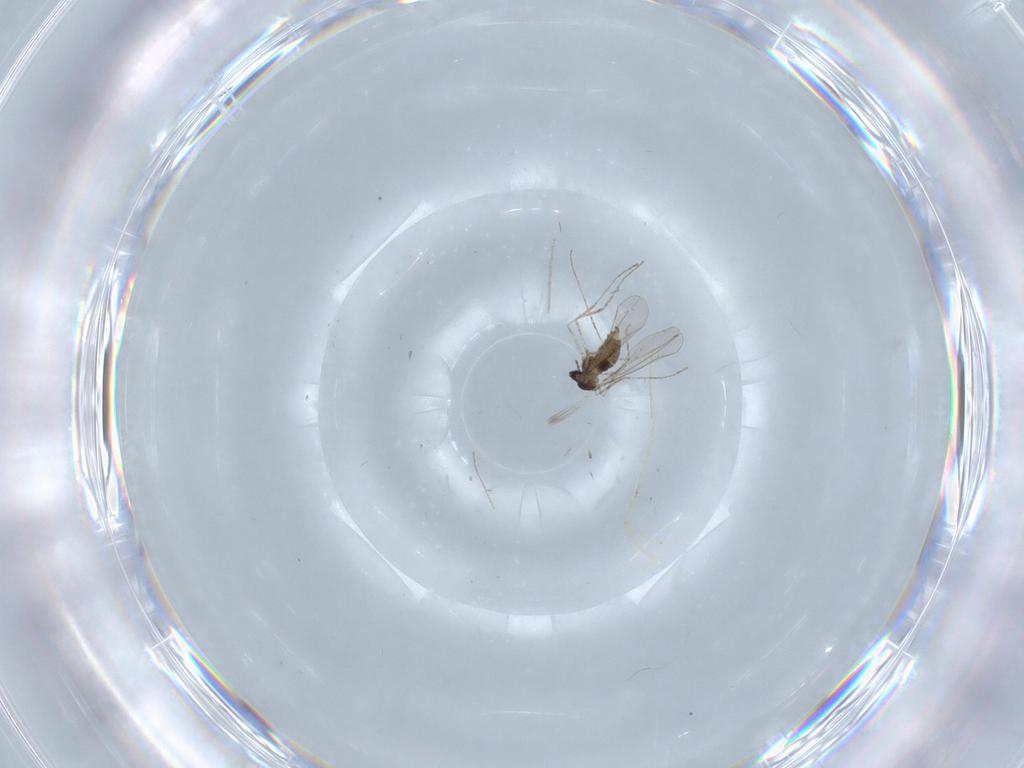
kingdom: Animalia
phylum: Arthropoda
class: Insecta
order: Diptera
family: Cecidomyiidae
